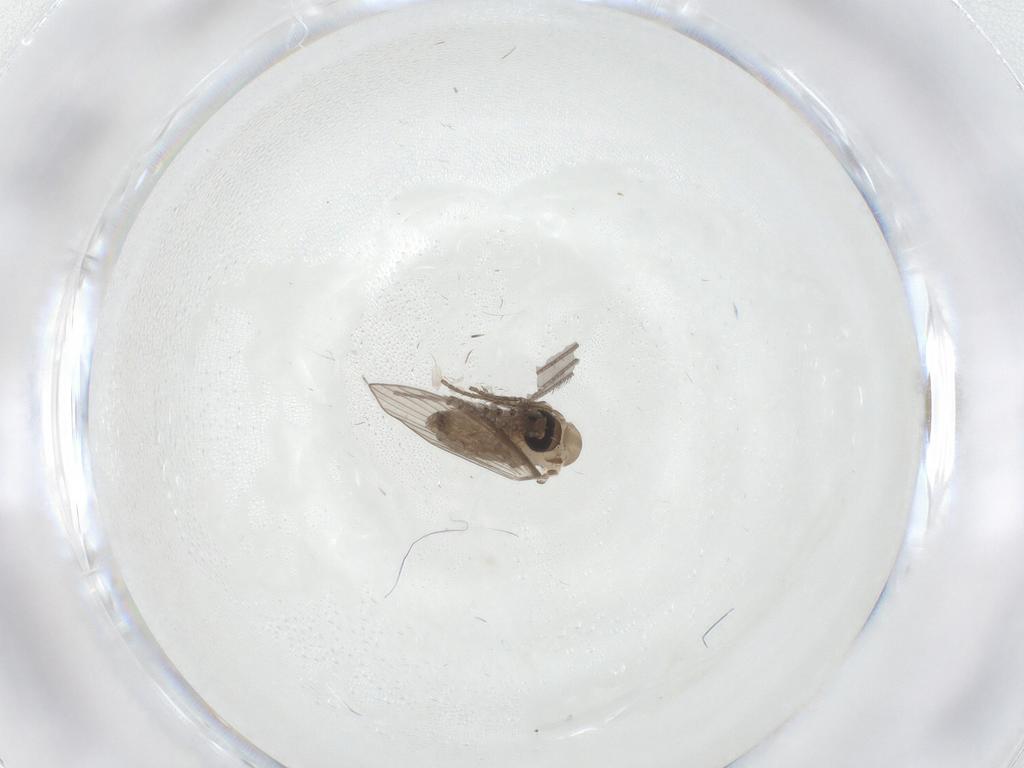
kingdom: Animalia
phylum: Arthropoda
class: Insecta
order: Diptera
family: Psychodidae
